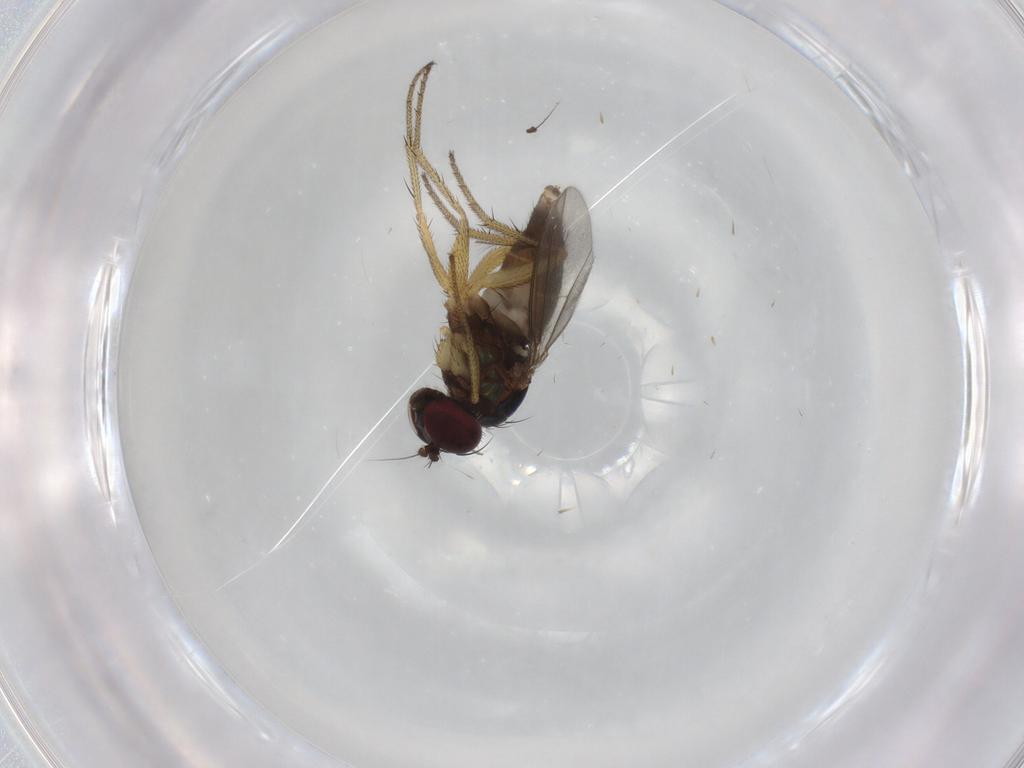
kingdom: Animalia
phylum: Arthropoda
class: Insecta
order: Diptera
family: Chironomidae
